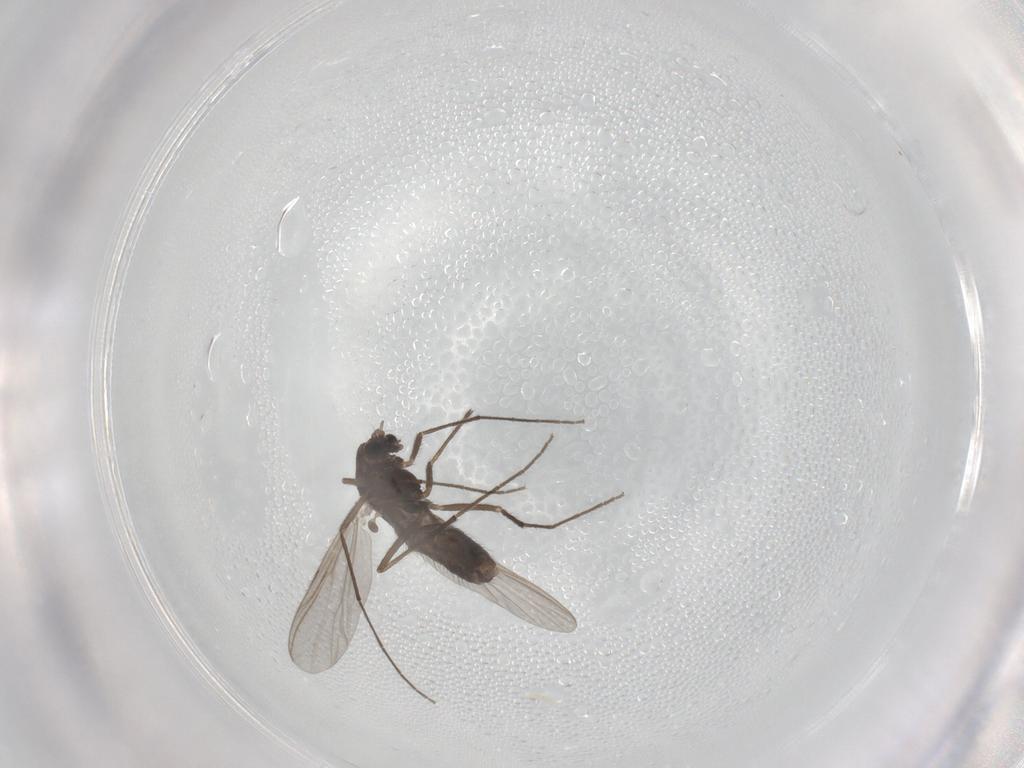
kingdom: Animalia
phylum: Arthropoda
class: Insecta
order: Diptera
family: Chironomidae
